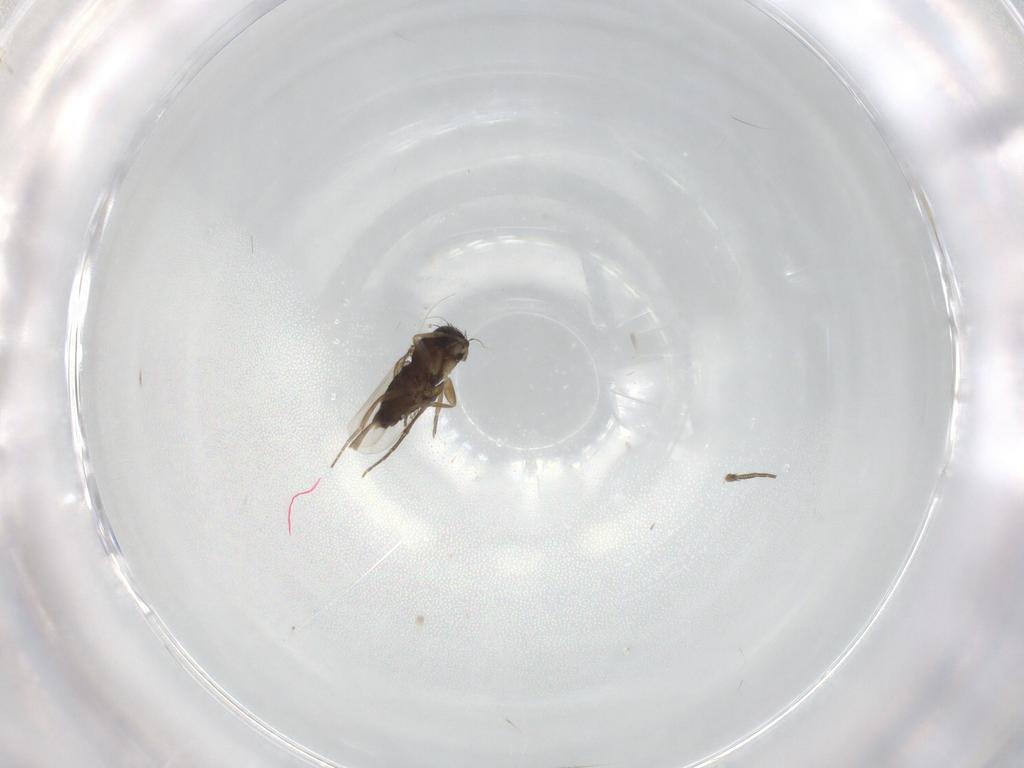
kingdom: Animalia
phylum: Arthropoda
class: Insecta
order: Diptera
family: Phoridae
